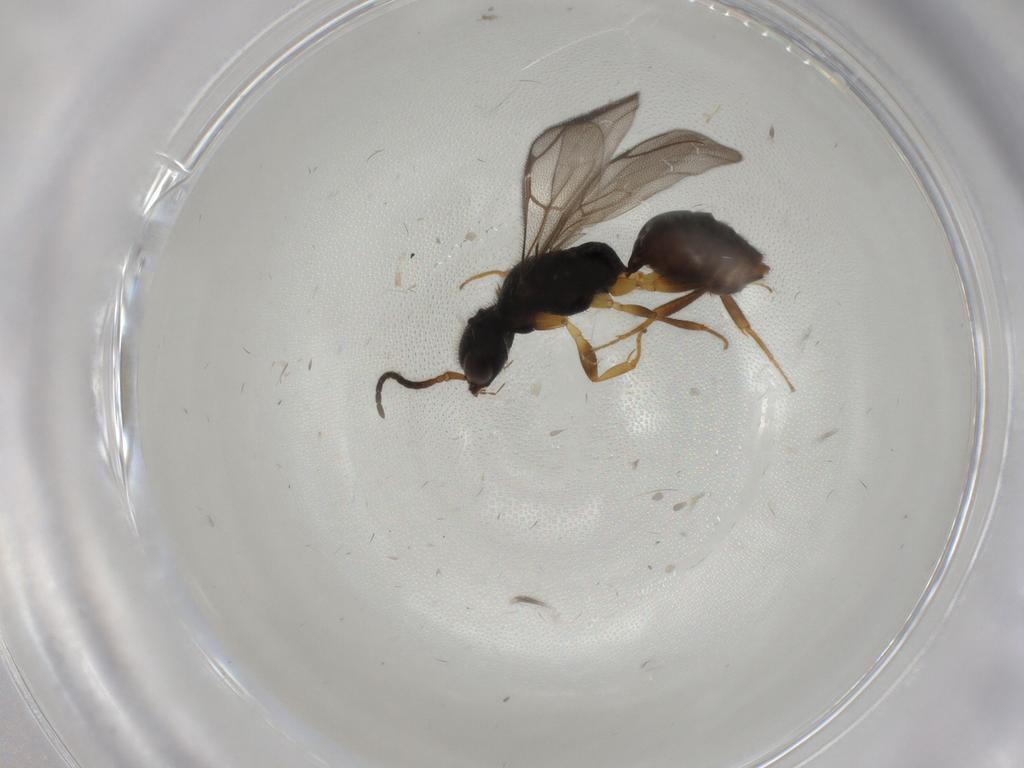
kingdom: Animalia
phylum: Arthropoda
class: Insecta
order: Hymenoptera
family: Bethylidae
